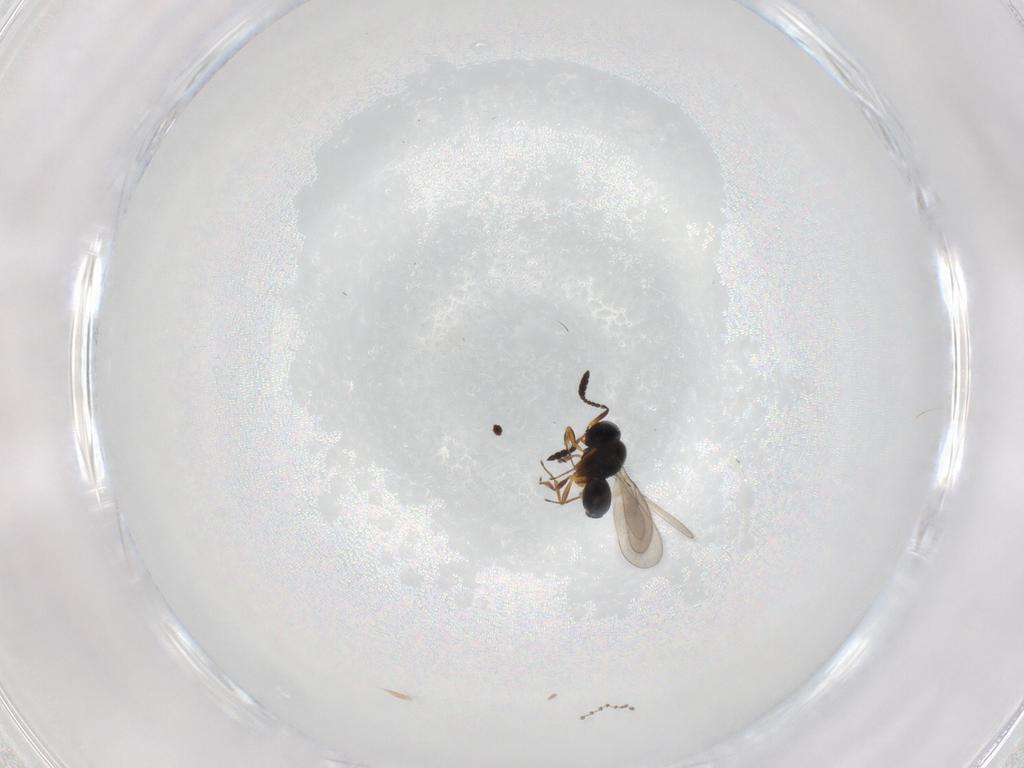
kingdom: Animalia
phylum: Arthropoda
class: Insecta
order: Hymenoptera
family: Scelionidae
